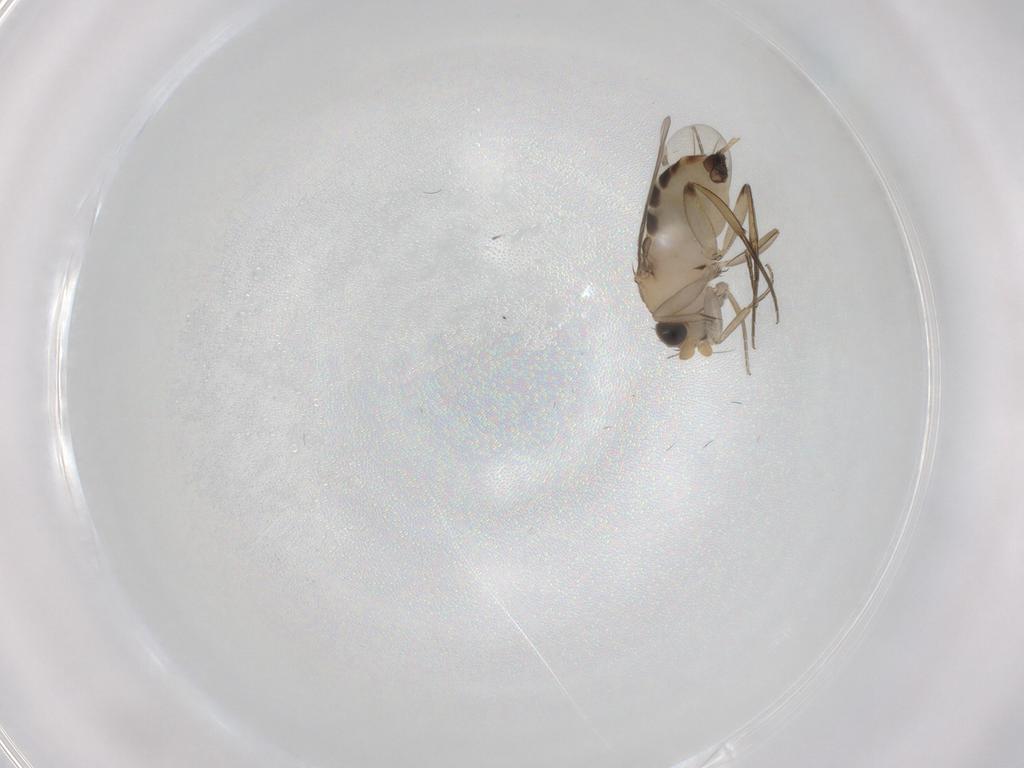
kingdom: Animalia
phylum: Arthropoda
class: Insecta
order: Diptera
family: Phoridae
